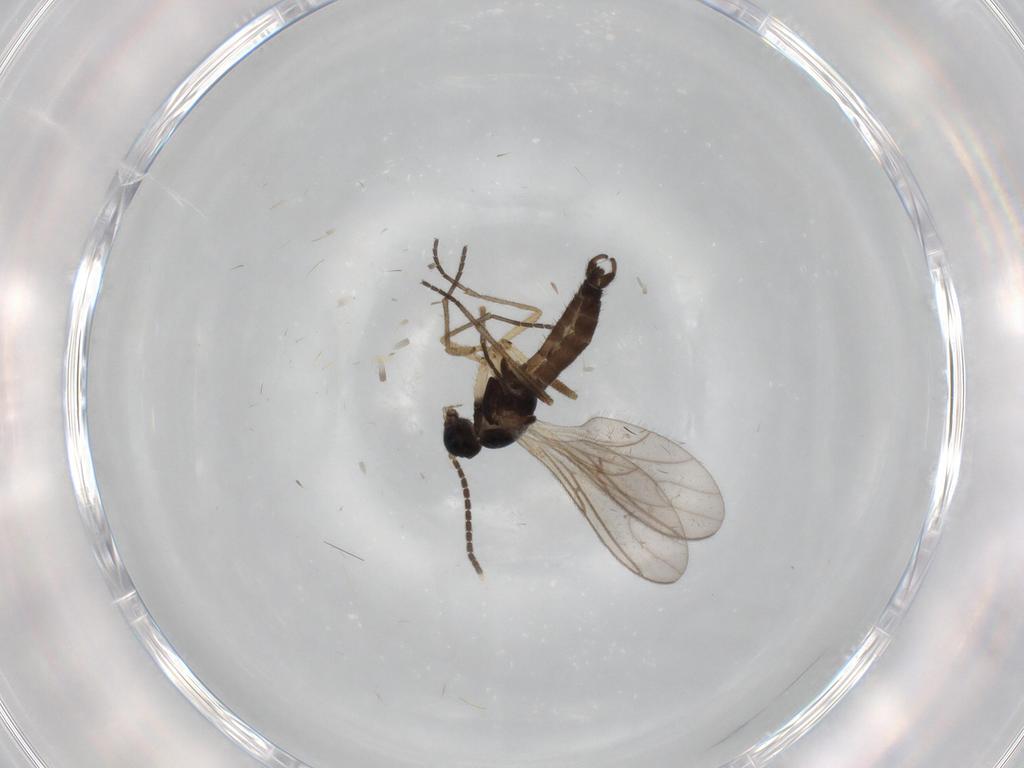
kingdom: Animalia
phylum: Arthropoda
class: Insecta
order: Diptera
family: Sciaridae
